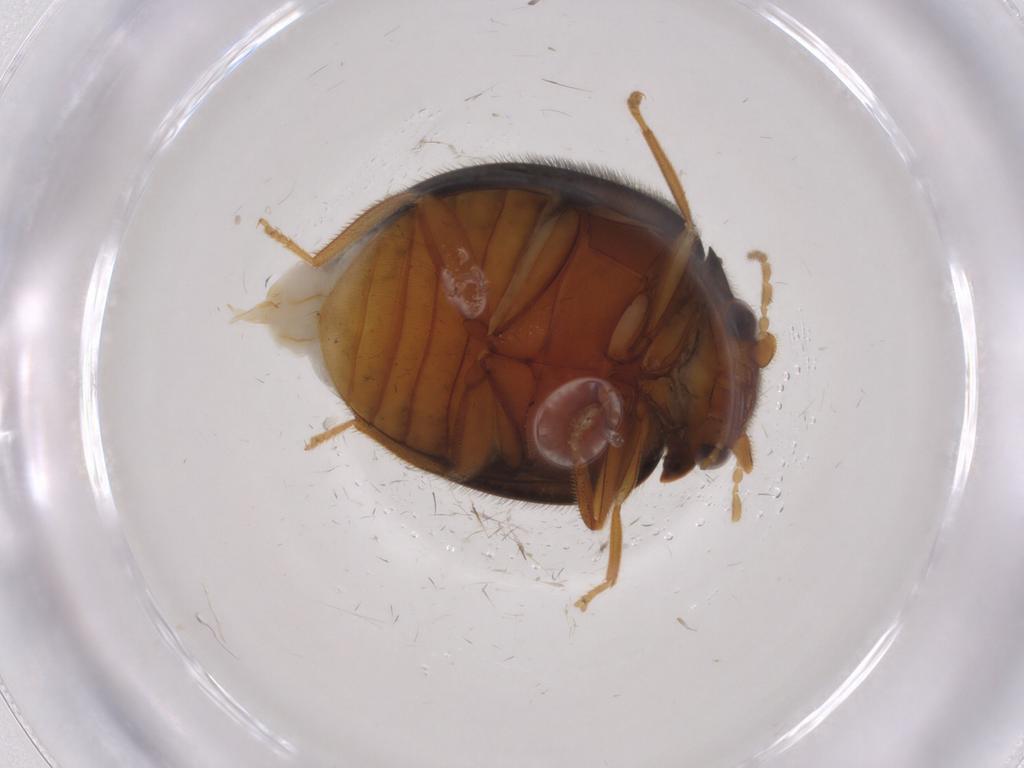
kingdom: Animalia
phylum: Arthropoda
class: Insecta
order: Coleoptera
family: Scirtidae
